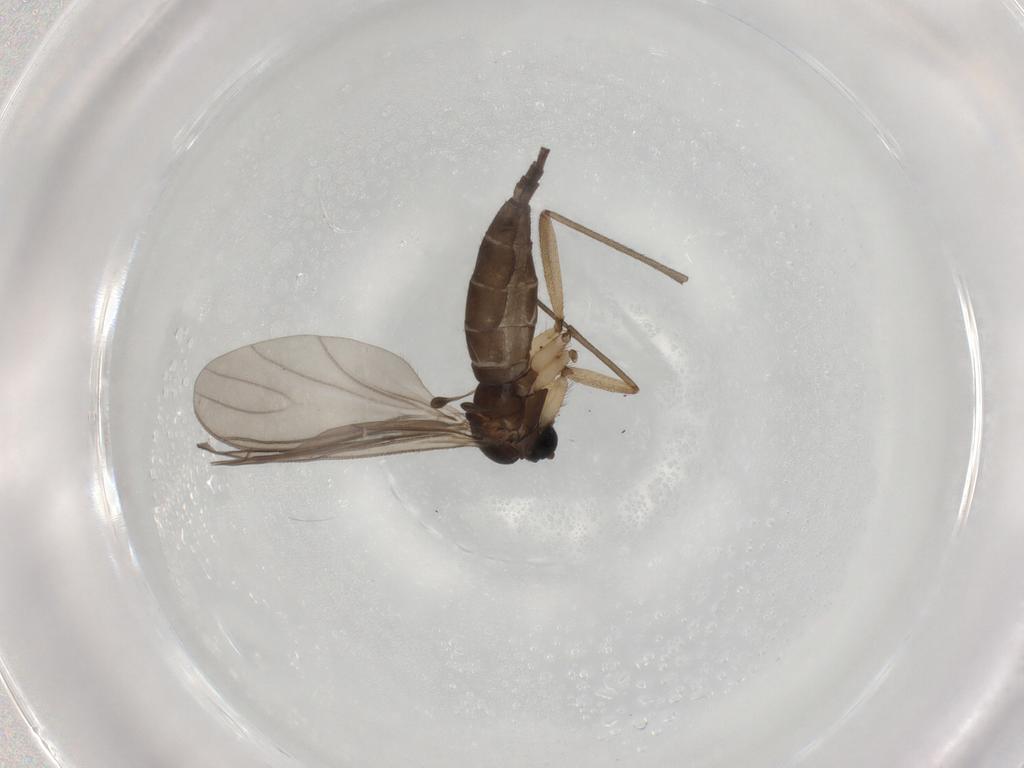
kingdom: Animalia
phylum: Arthropoda
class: Insecta
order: Diptera
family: Sciaridae
